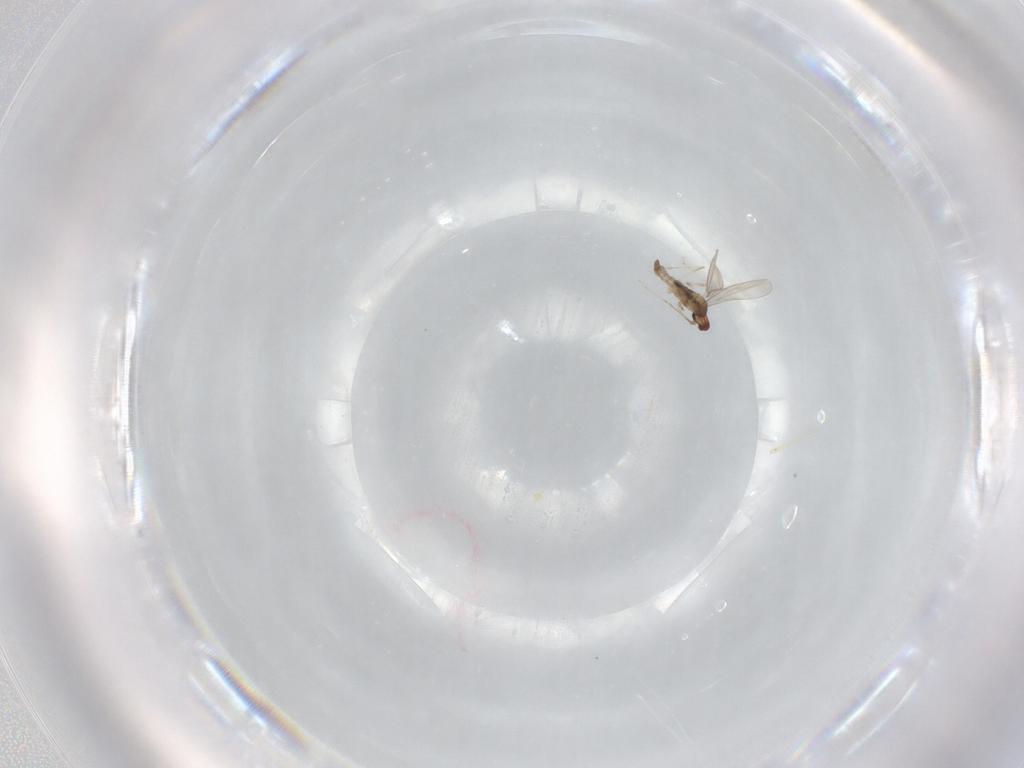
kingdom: Animalia
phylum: Arthropoda
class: Insecta
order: Diptera
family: Cecidomyiidae
